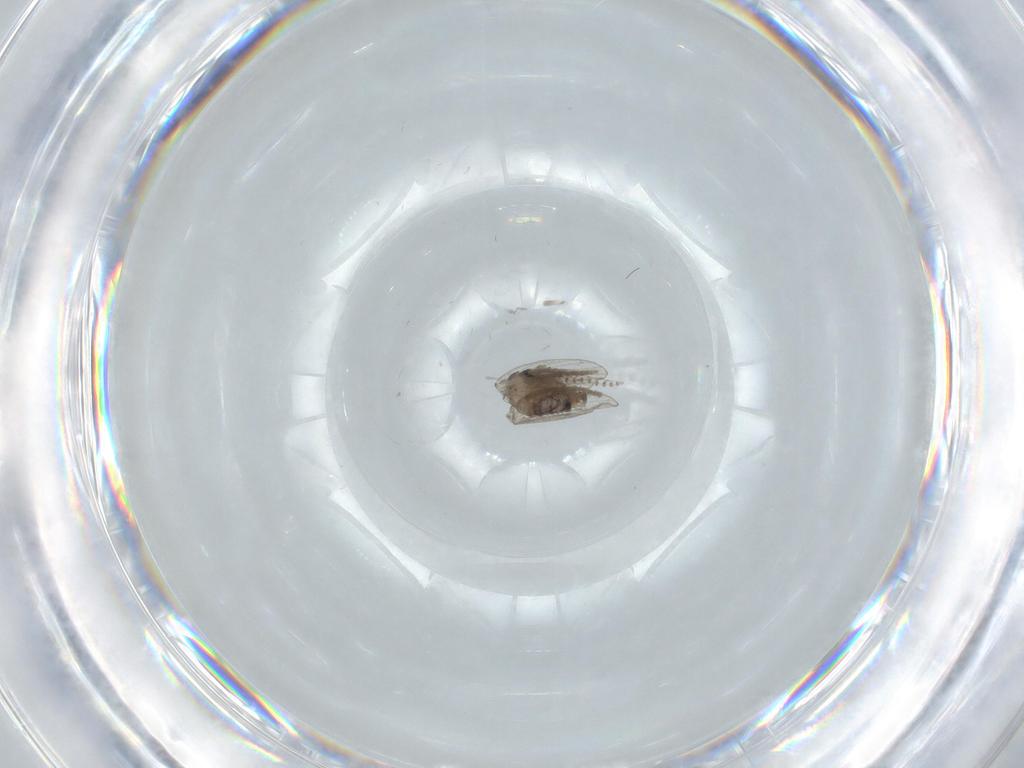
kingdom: Animalia
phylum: Arthropoda
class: Insecta
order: Diptera
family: Psychodidae
